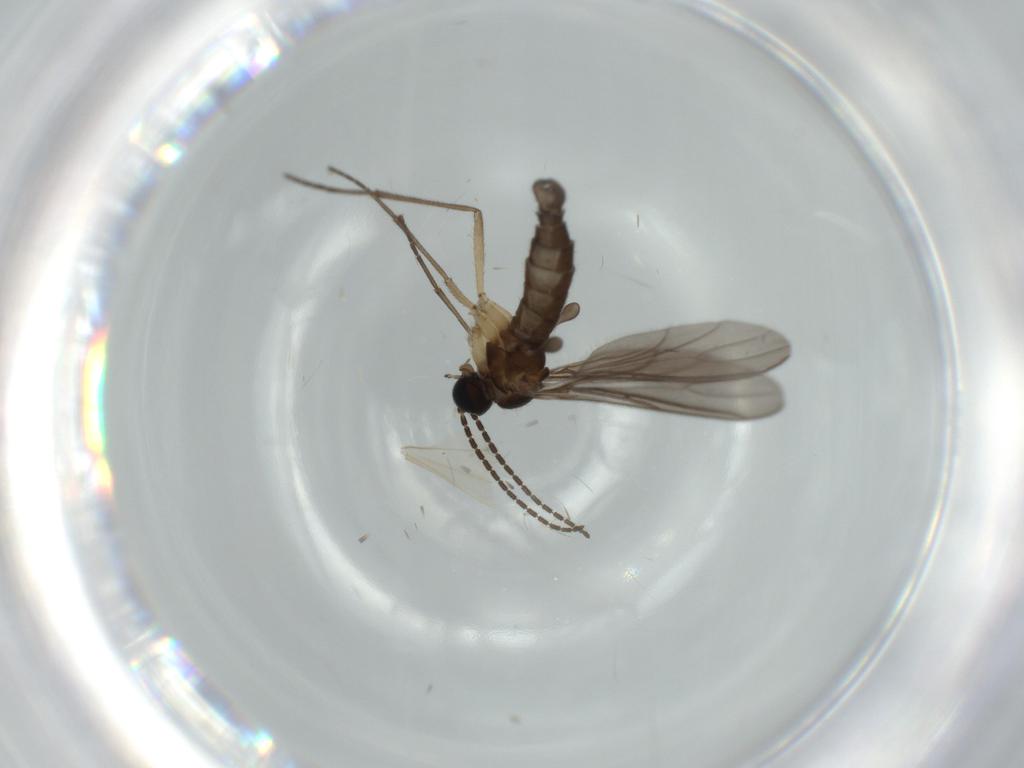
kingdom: Animalia
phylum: Arthropoda
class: Insecta
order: Diptera
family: Sciaridae
